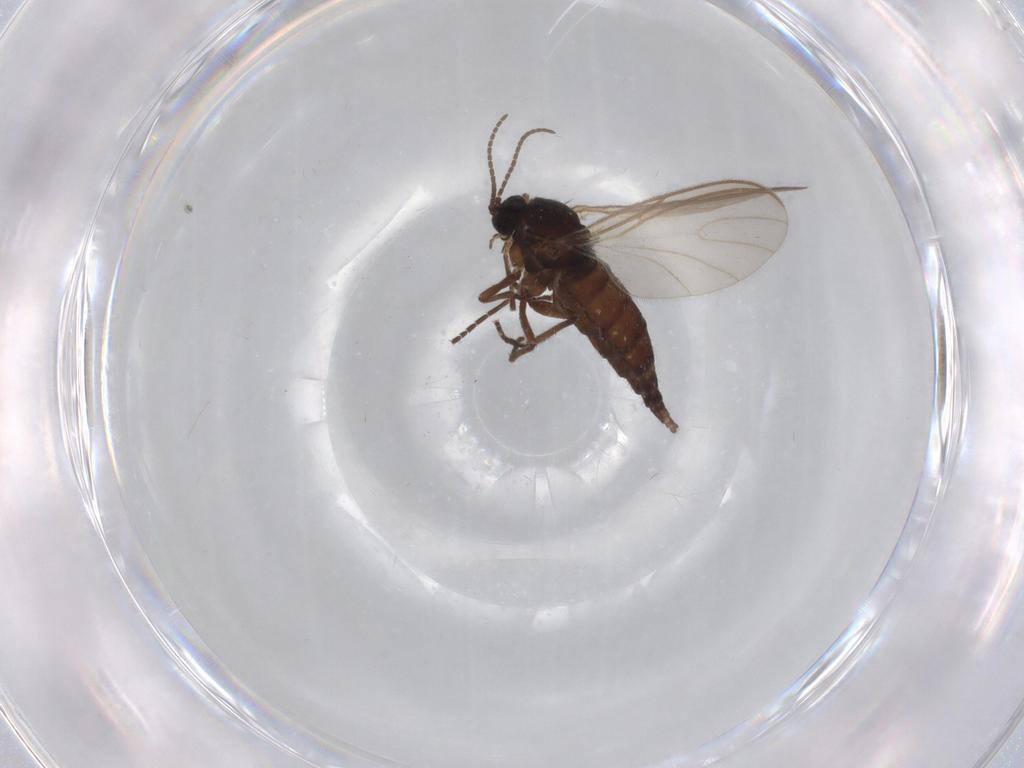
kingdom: Animalia
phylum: Arthropoda
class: Insecta
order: Diptera
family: Sciaridae
